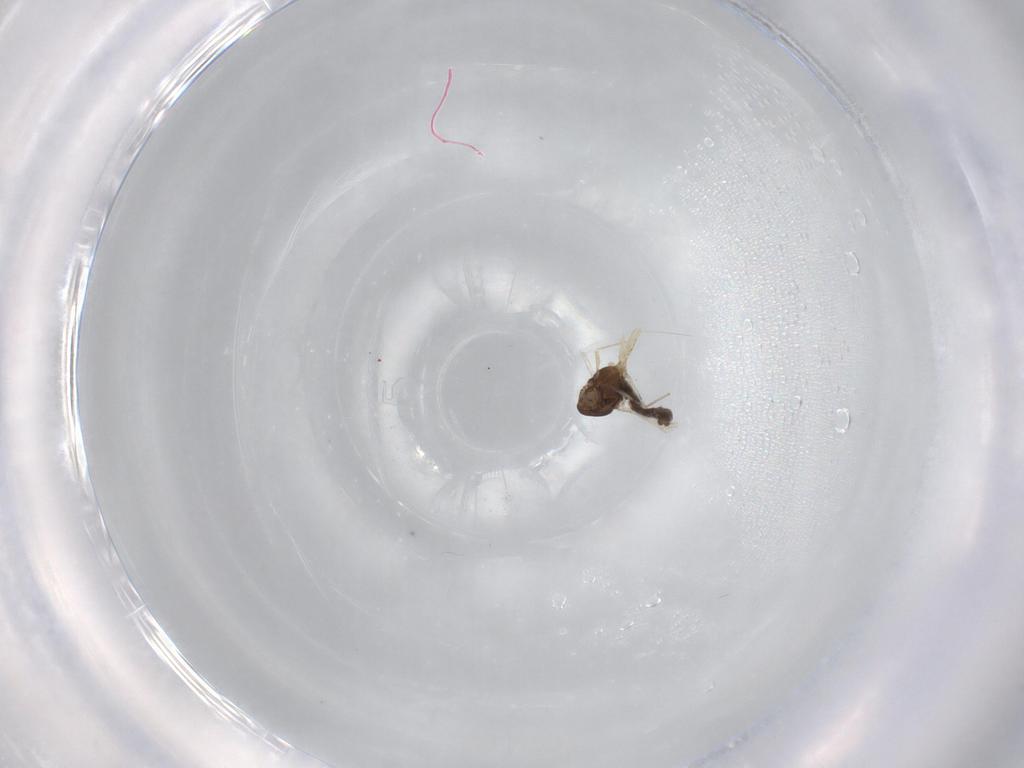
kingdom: Animalia
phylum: Arthropoda
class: Insecta
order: Diptera
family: Chironomidae
